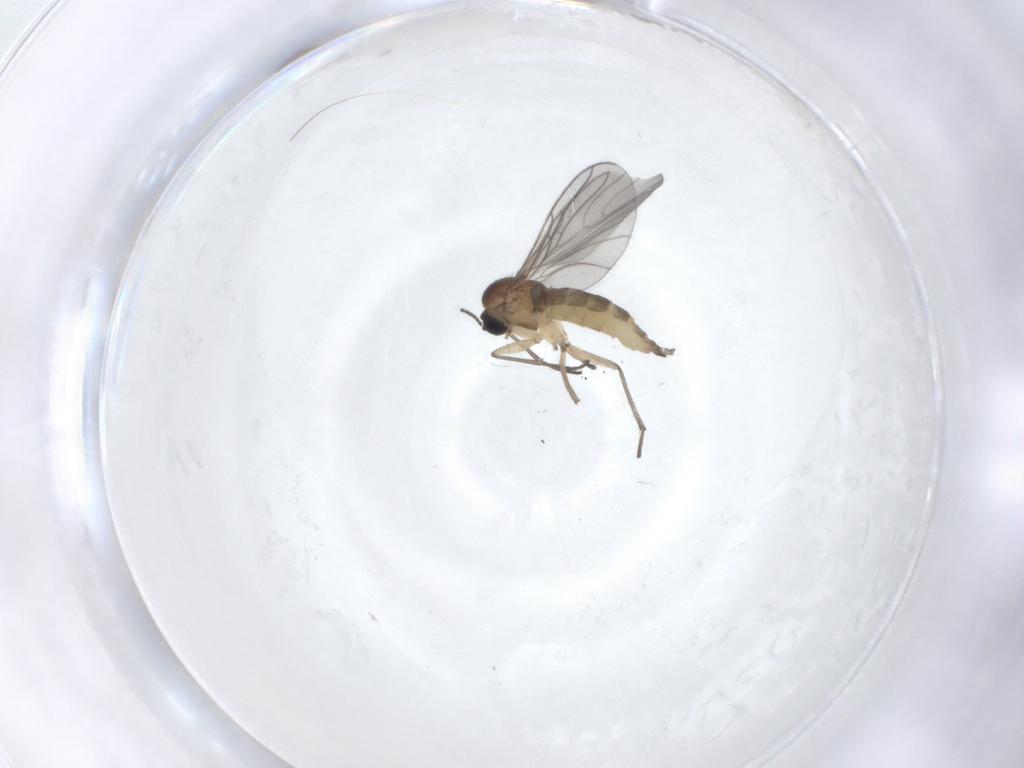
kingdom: Animalia
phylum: Arthropoda
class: Insecta
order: Diptera
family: Sciaridae
